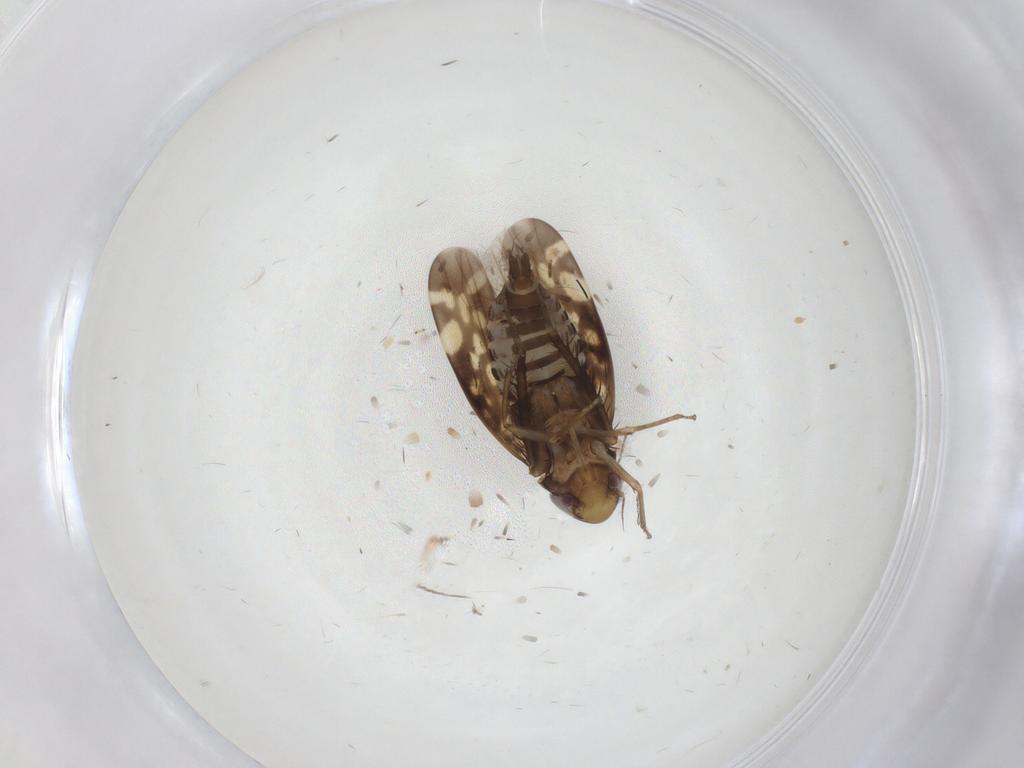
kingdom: Animalia
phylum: Arthropoda
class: Insecta
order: Hemiptera
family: Cicadellidae
